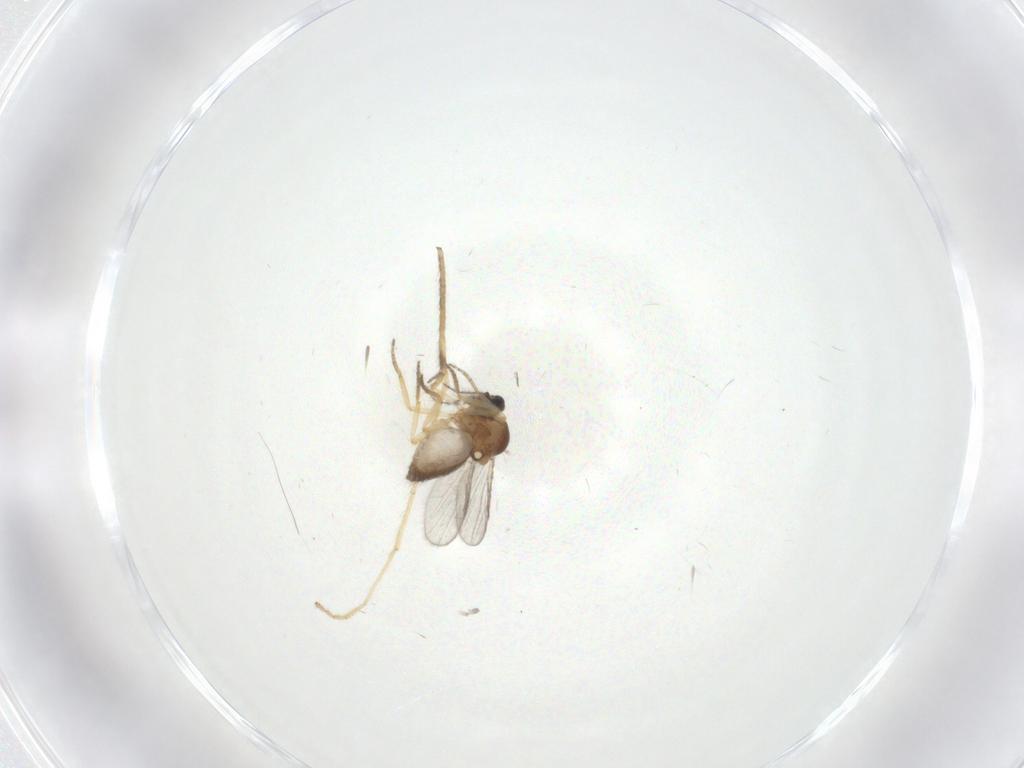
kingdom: Animalia
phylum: Arthropoda
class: Insecta
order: Diptera
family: Limoniidae
